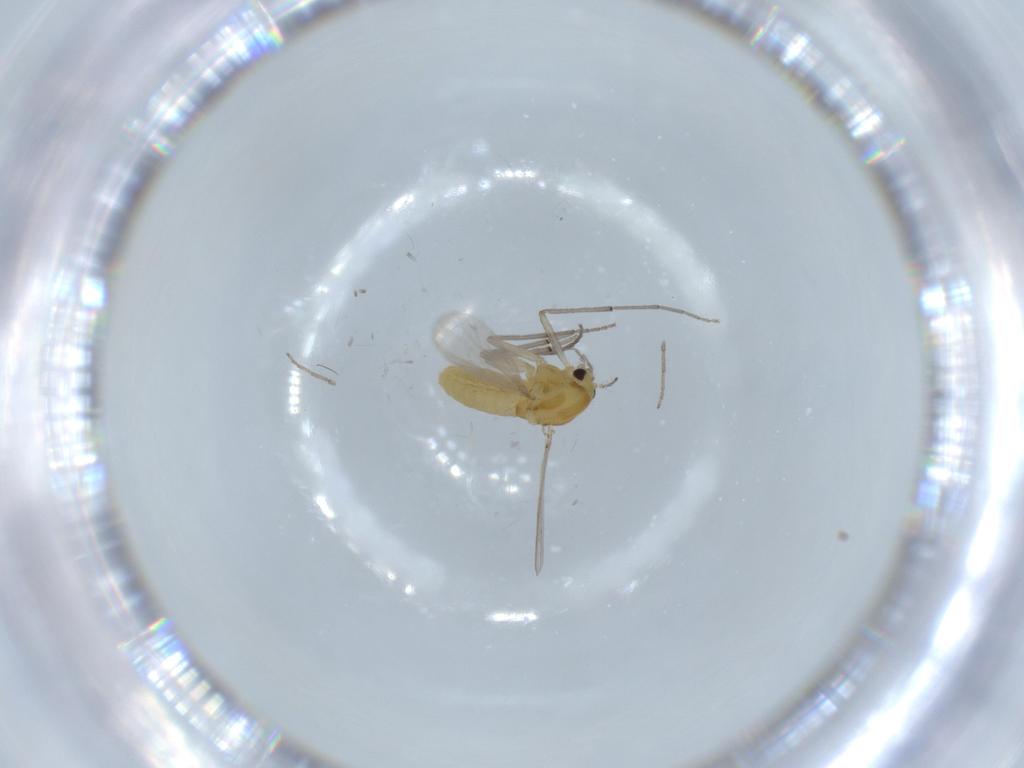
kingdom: Animalia
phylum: Arthropoda
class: Insecta
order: Diptera
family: Chironomidae
